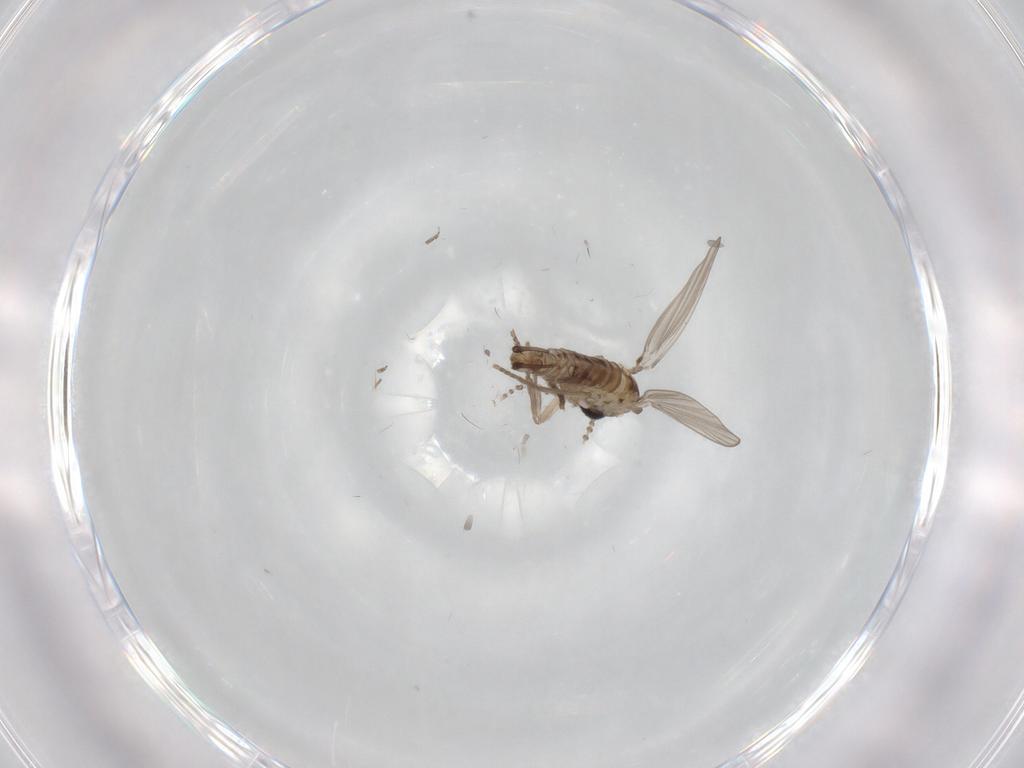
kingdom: Animalia
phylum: Arthropoda
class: Insecta
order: Diptera
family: Psychodidae
